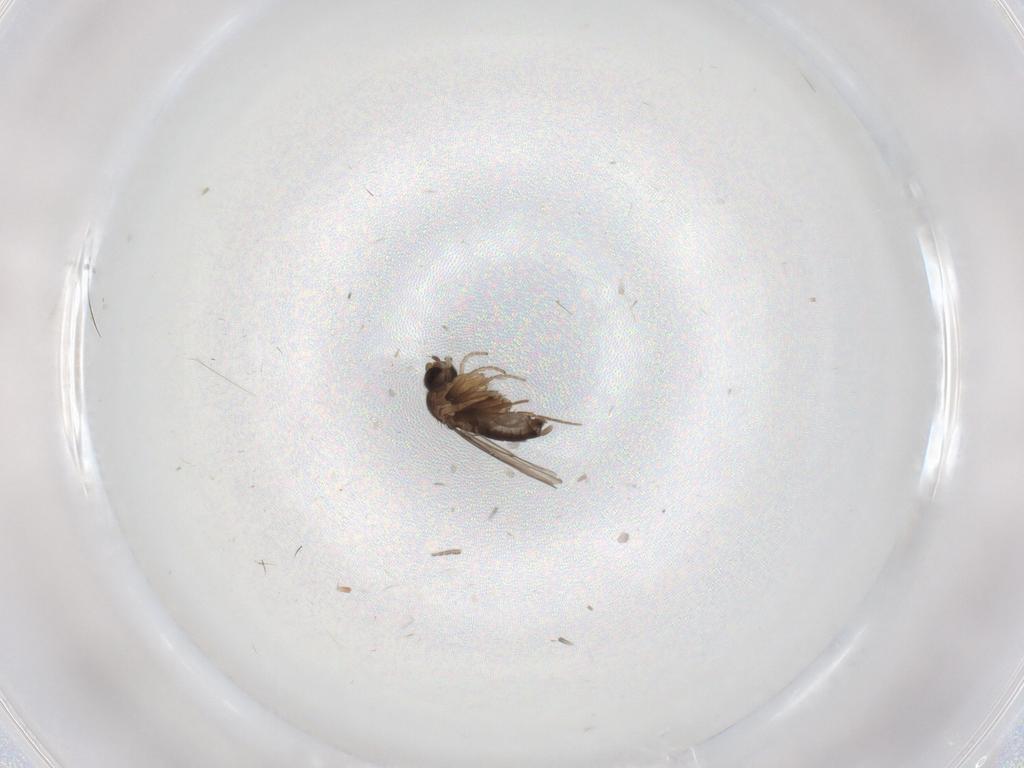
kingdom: Animalia
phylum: Arthropoda
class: Insecta
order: Diptera
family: Phoridae
